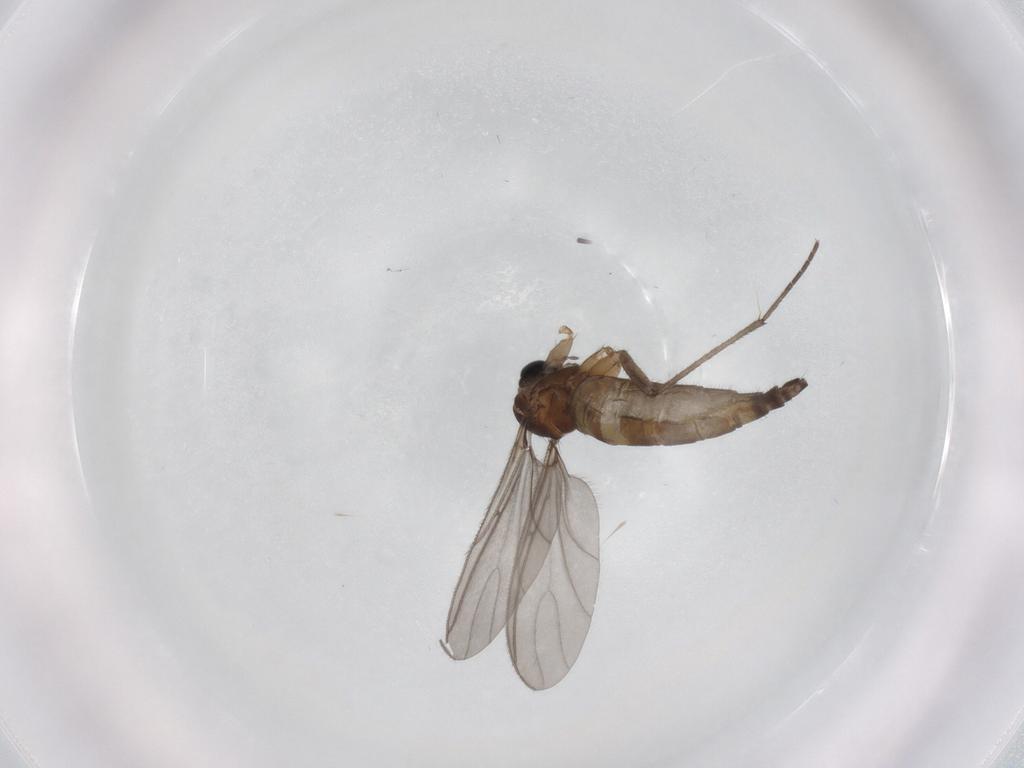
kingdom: Animalia
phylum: Arthropoda
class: Insecta
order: Diptera
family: Sciaridae
